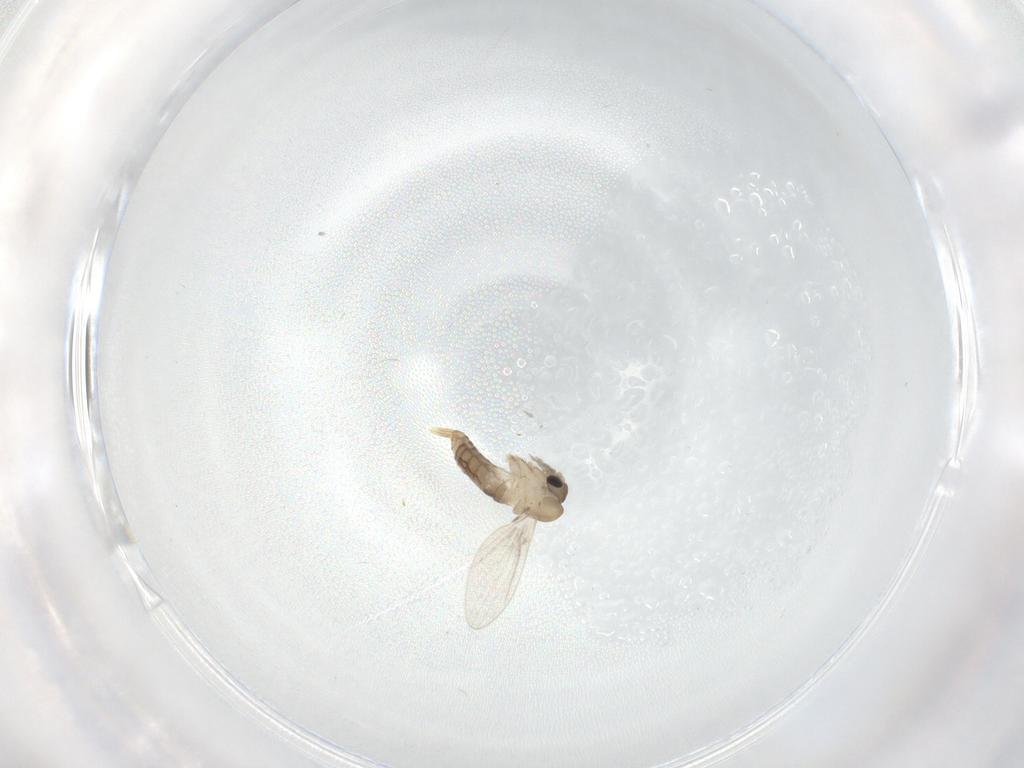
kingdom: Animalia
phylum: Arthropoda
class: Insecta
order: Diptera
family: Psychodidae
